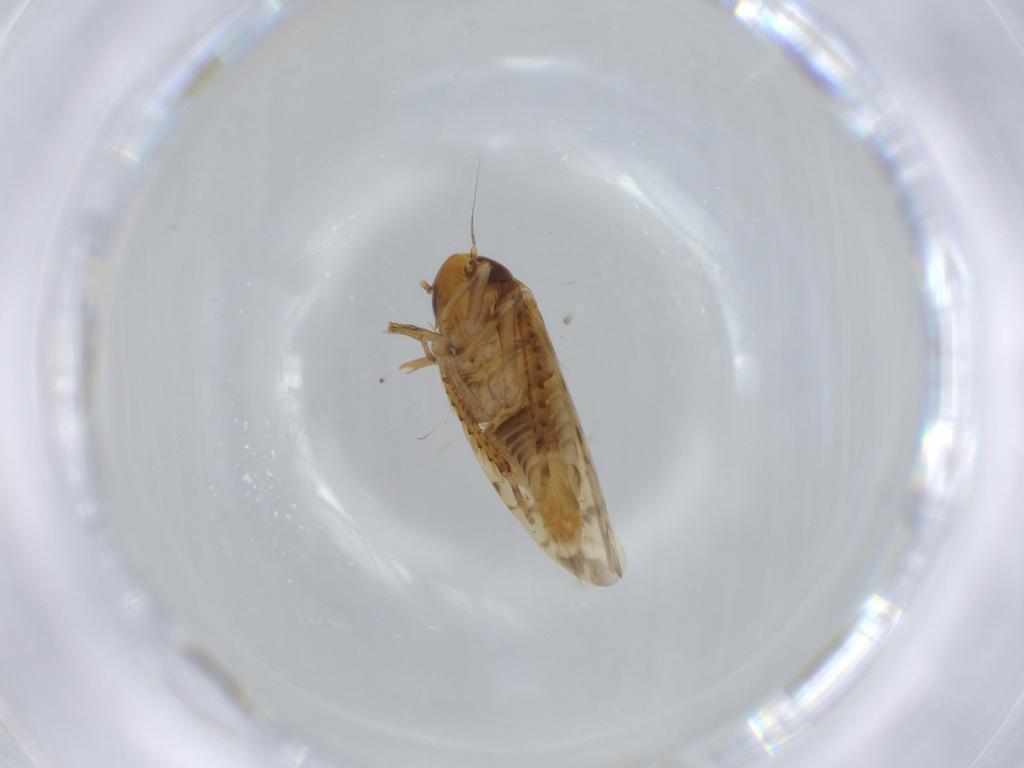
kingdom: Animalia
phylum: Arthropoda
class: Insecta
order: Hemiptera
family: Cicadellidae
